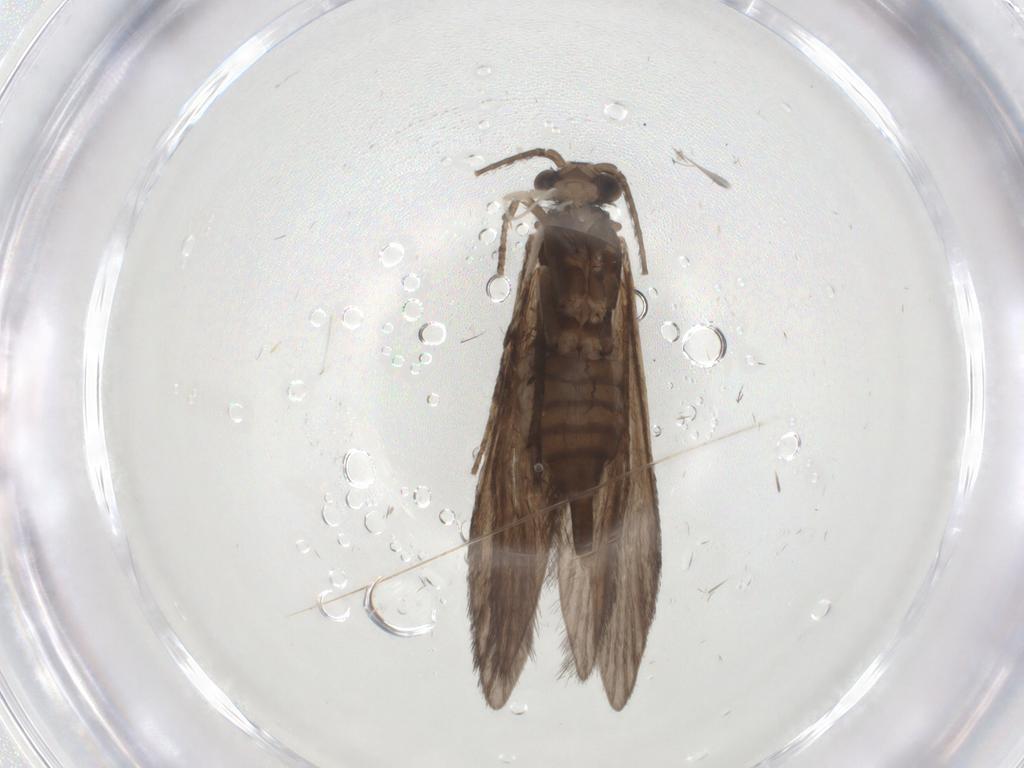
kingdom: Animalia
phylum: Arthropoda
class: Insecta
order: Trichoptera
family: Xiphocentronidae
